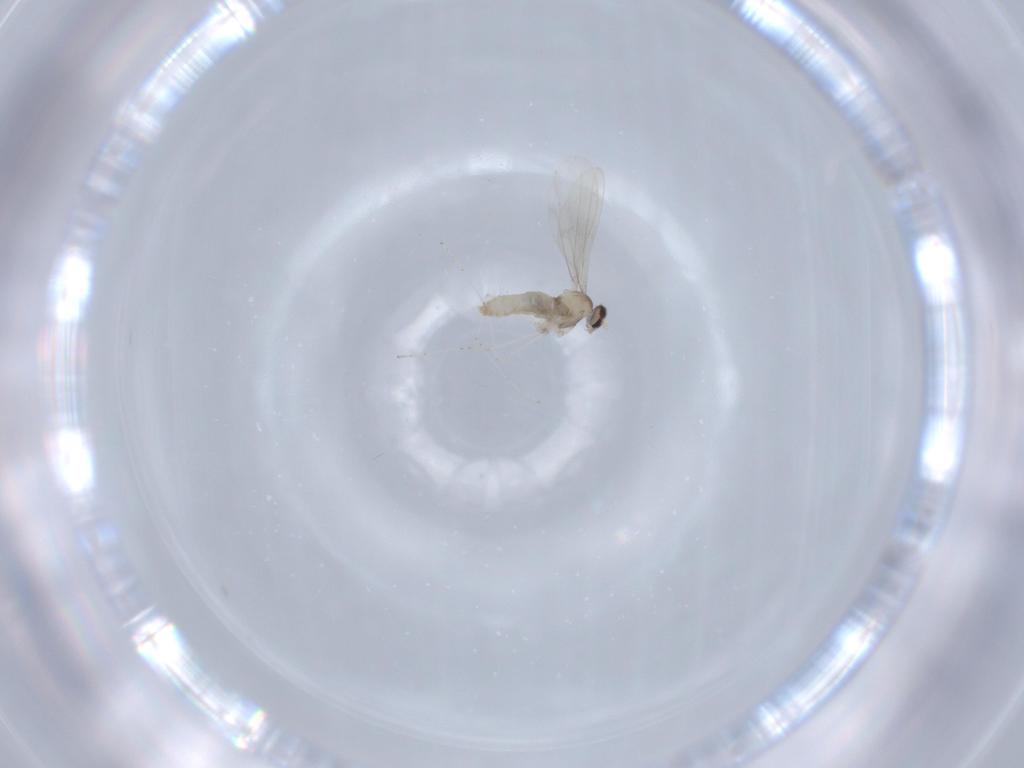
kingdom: Animalia
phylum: Arthropoda
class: Insecta
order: Diptera
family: Cecidomyiidae
